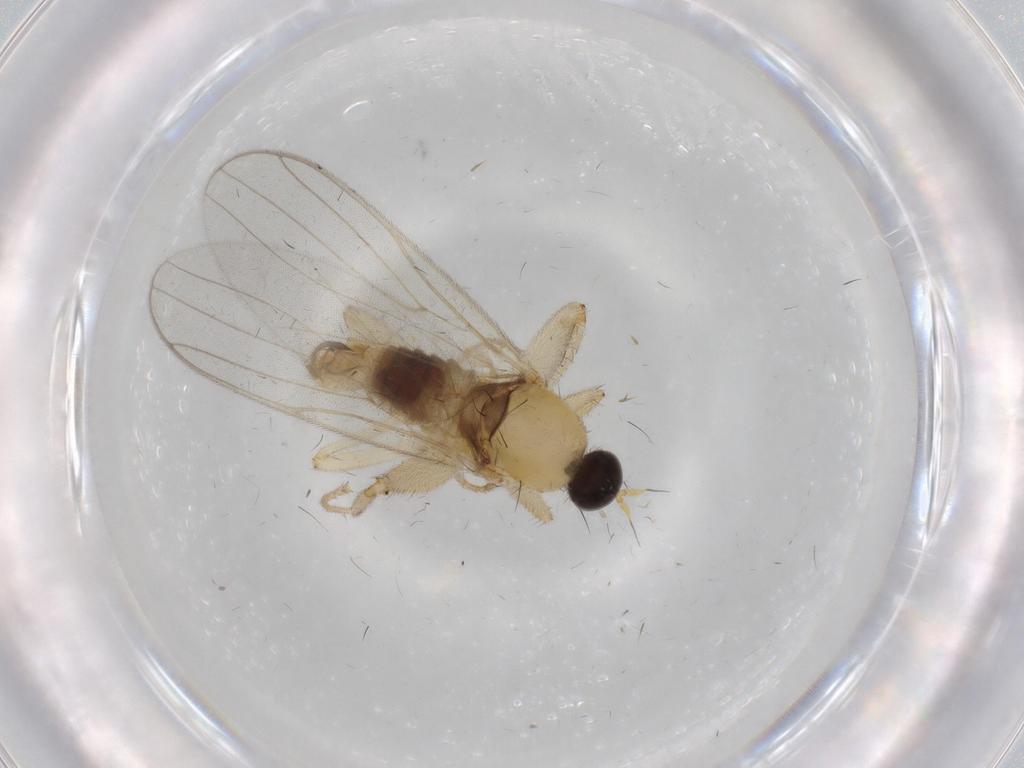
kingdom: Animalia
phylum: Arthropoda
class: Insecta
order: Diptera
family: Hybotidae
